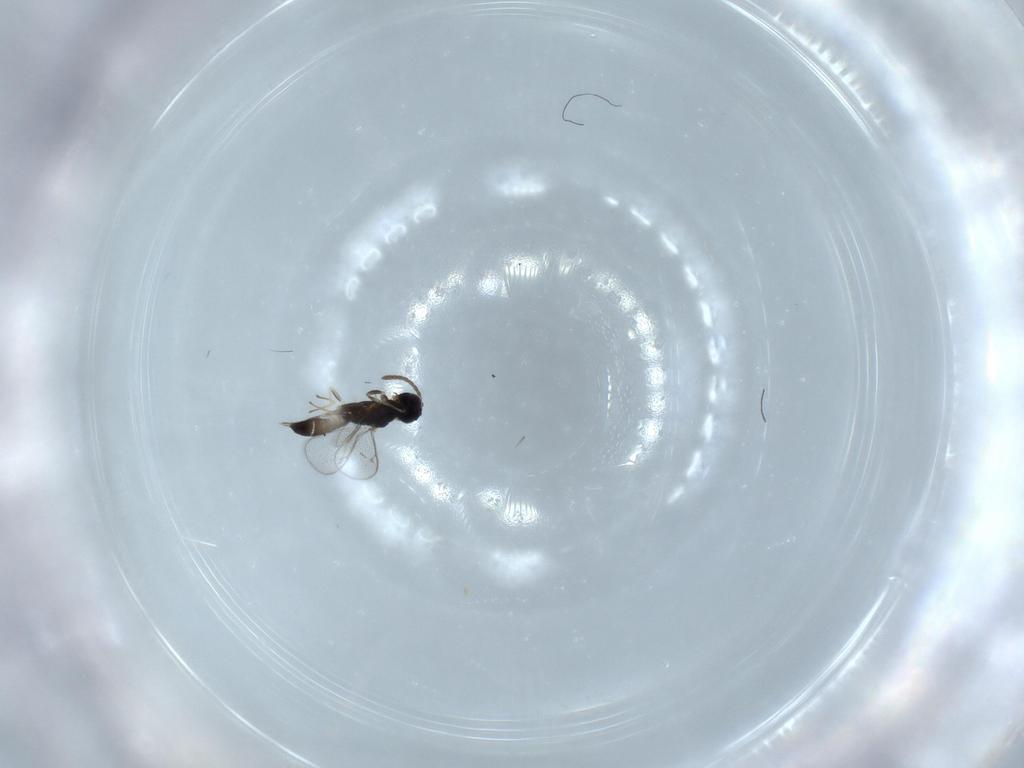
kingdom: Animalia
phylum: Arthropoda
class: Insecta
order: Hymenoptera
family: Eupelmidae
